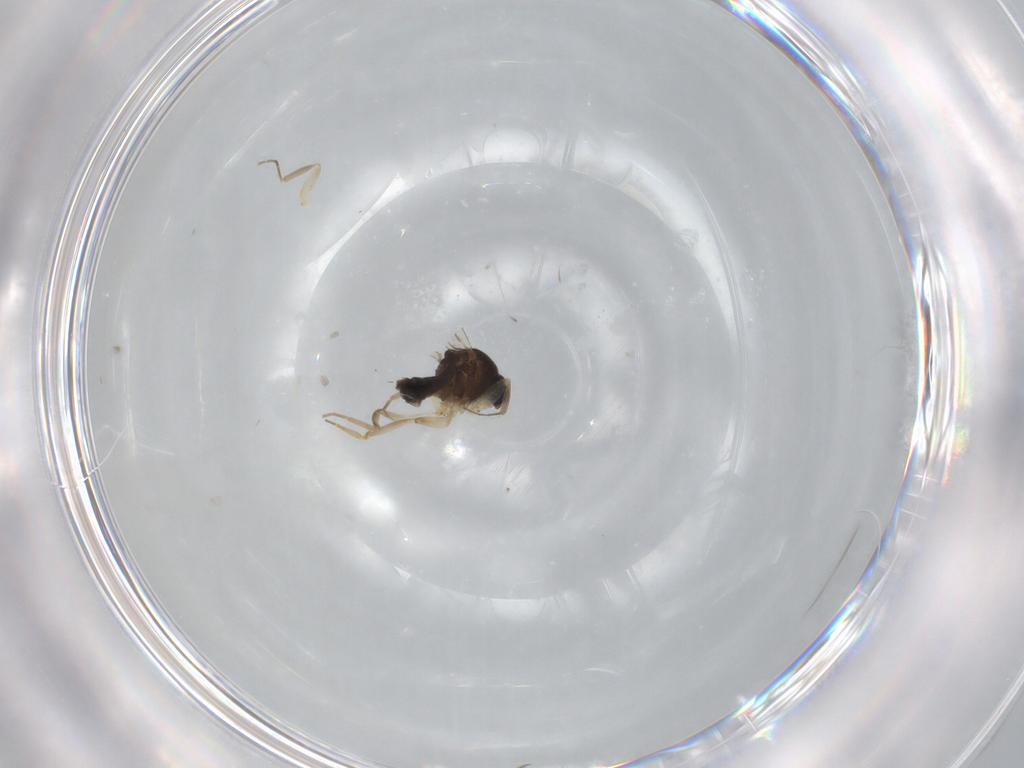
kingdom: Animalia
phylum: Arthropoda
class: Insecta
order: Diptera
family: Hybotidae
